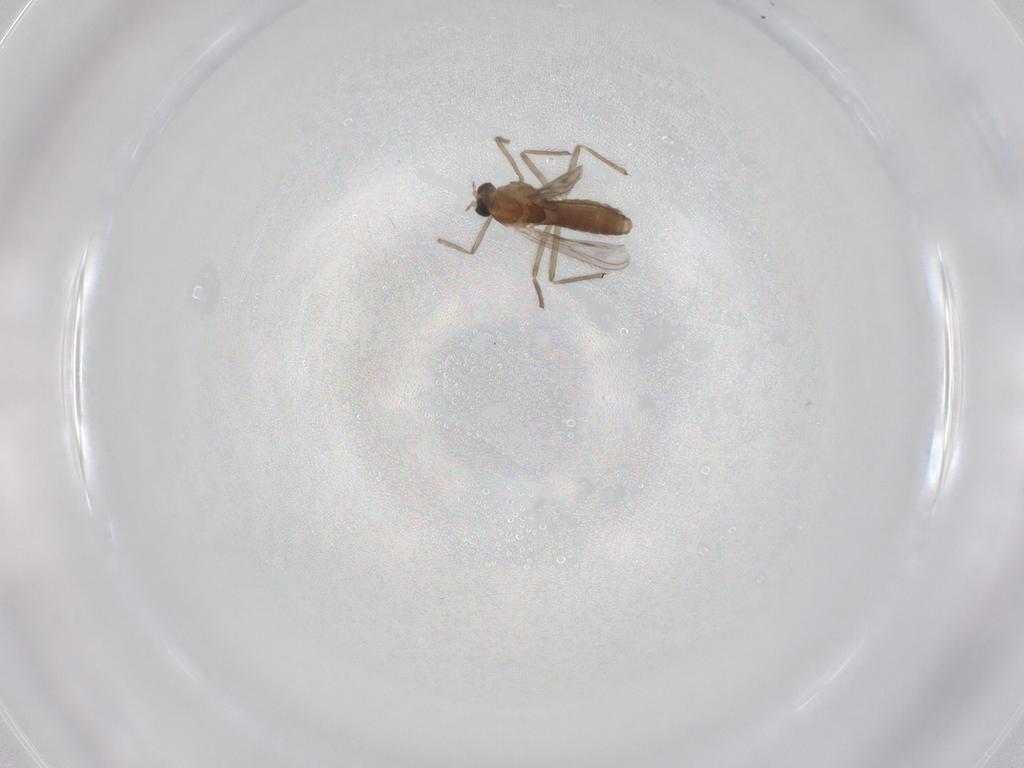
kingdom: Animalia
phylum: Arthropoda
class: Insecta
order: Diptera
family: Chironomidae
